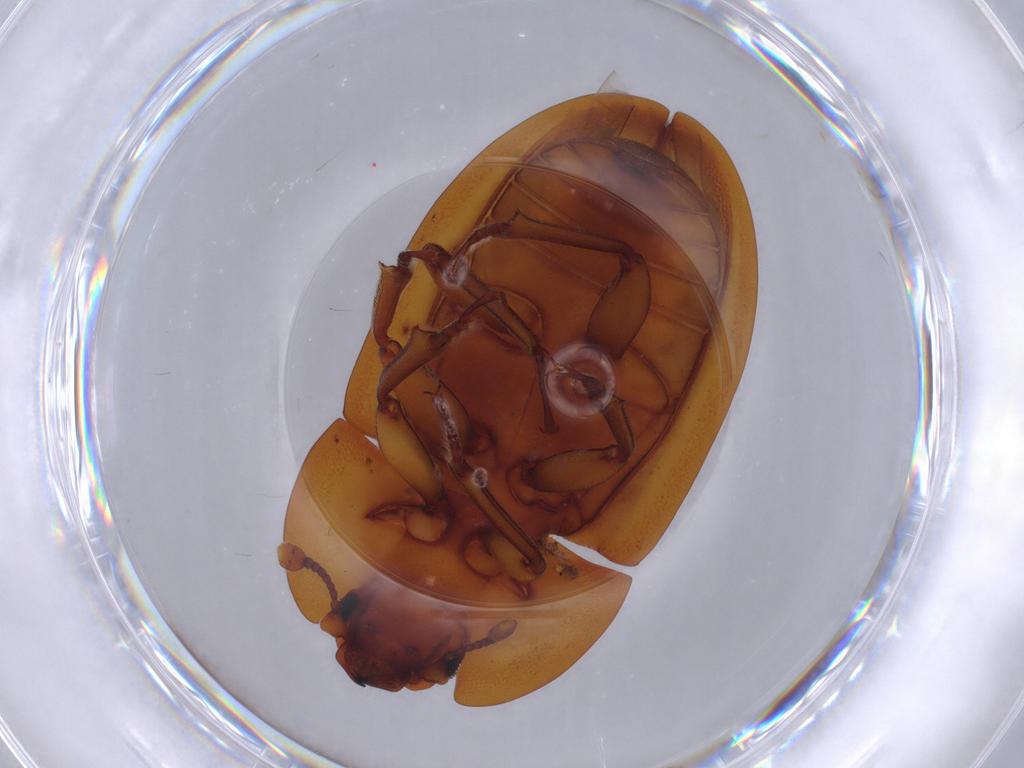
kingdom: Animalia
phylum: Arthropoda
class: Insecta
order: Coleoptera
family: Nitidulidae
